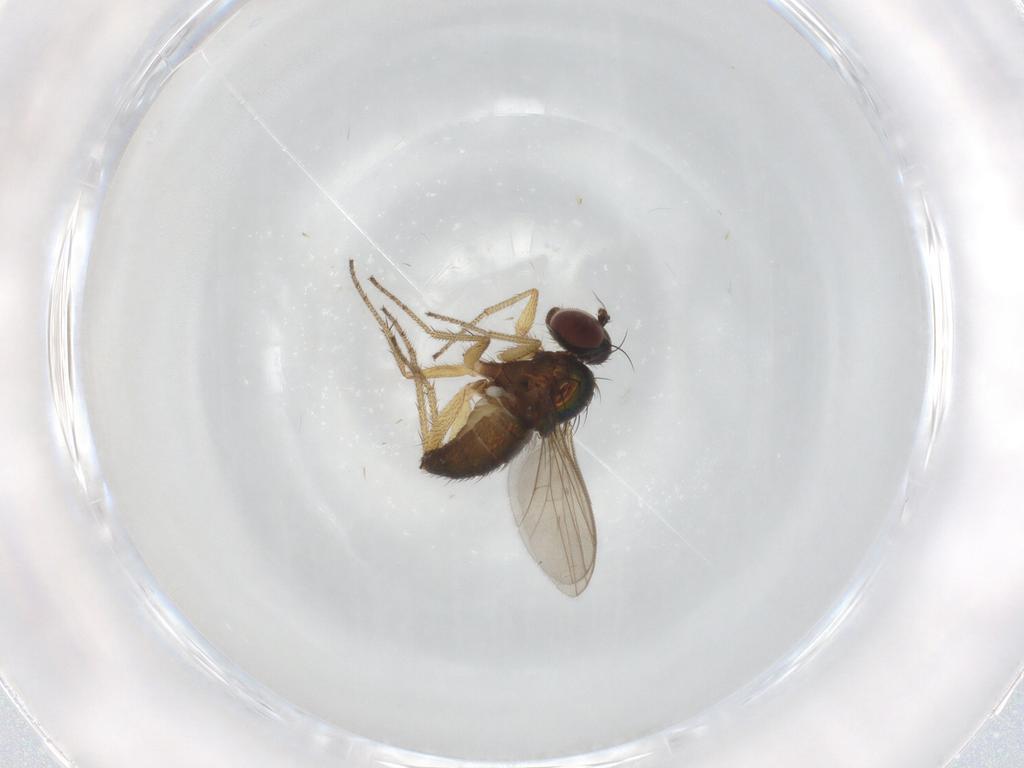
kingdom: Animalia
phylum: Arthropoda
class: Insecta
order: Diptera
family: Dolichopodidae
